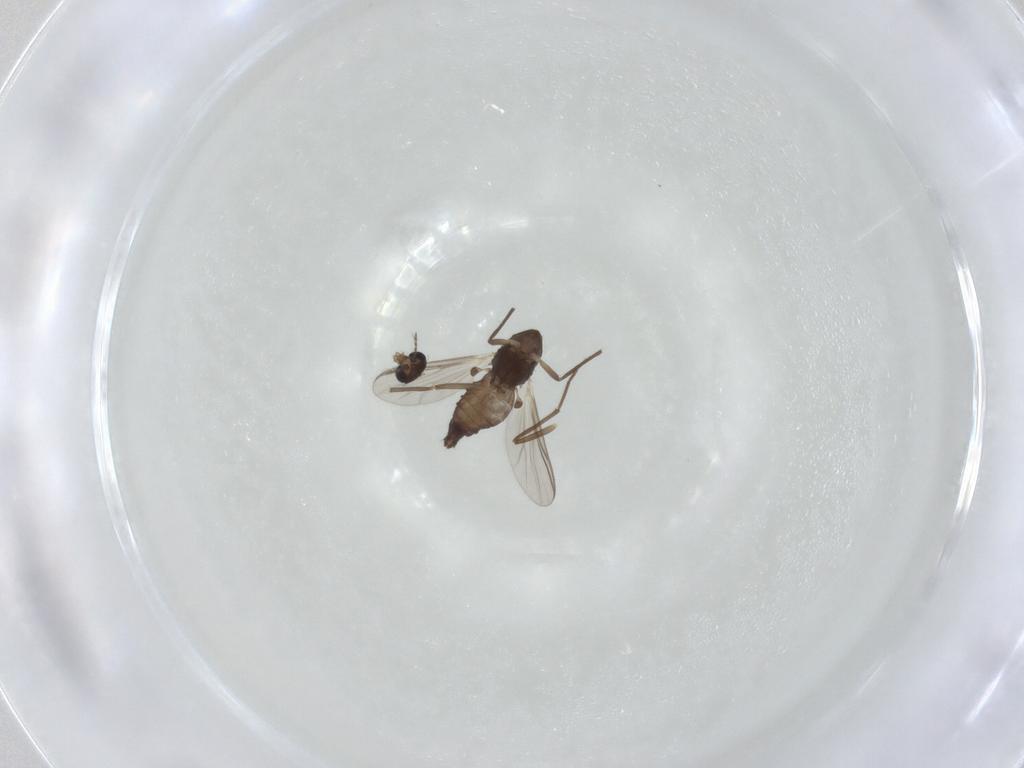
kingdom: Animalia
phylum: Arthropoda
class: Insecta
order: Diptera
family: Chironomidae
